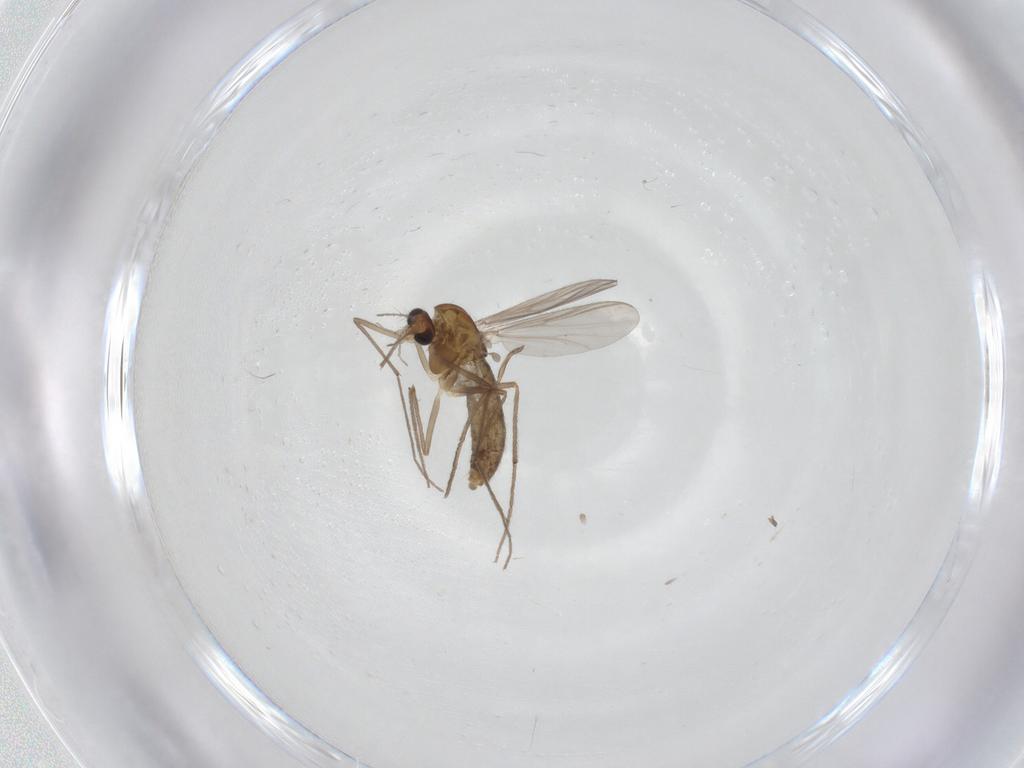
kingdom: Animalia
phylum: Arthropoda
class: Insecta
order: Diptera
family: Chironomidae
